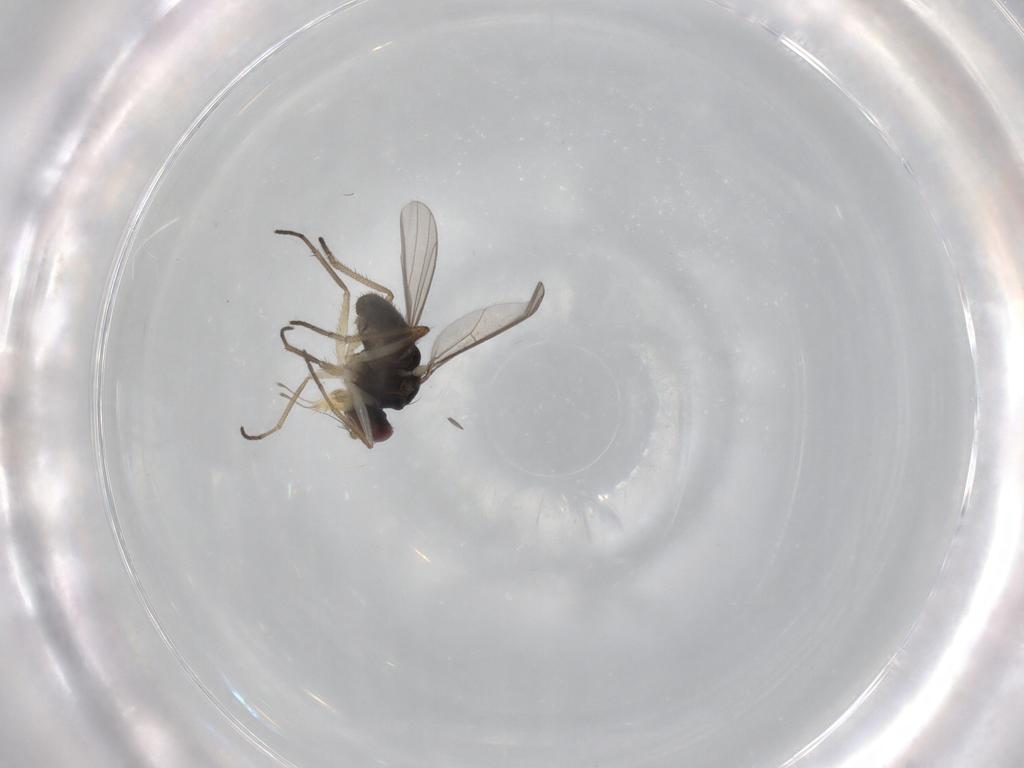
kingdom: Animalia
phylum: Arthropoda
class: Insecta
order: Diptera
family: Dolichopodidae
